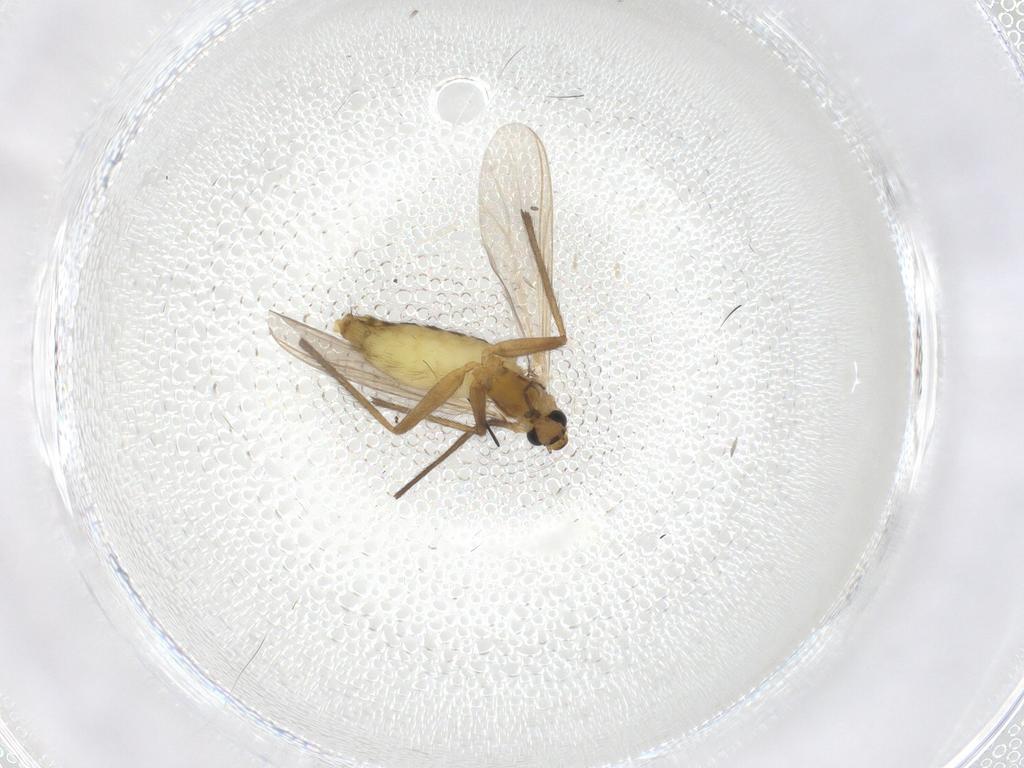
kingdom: Animalia
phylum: Arthropoda
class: Insecta
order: Diptera
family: Chironomidae
